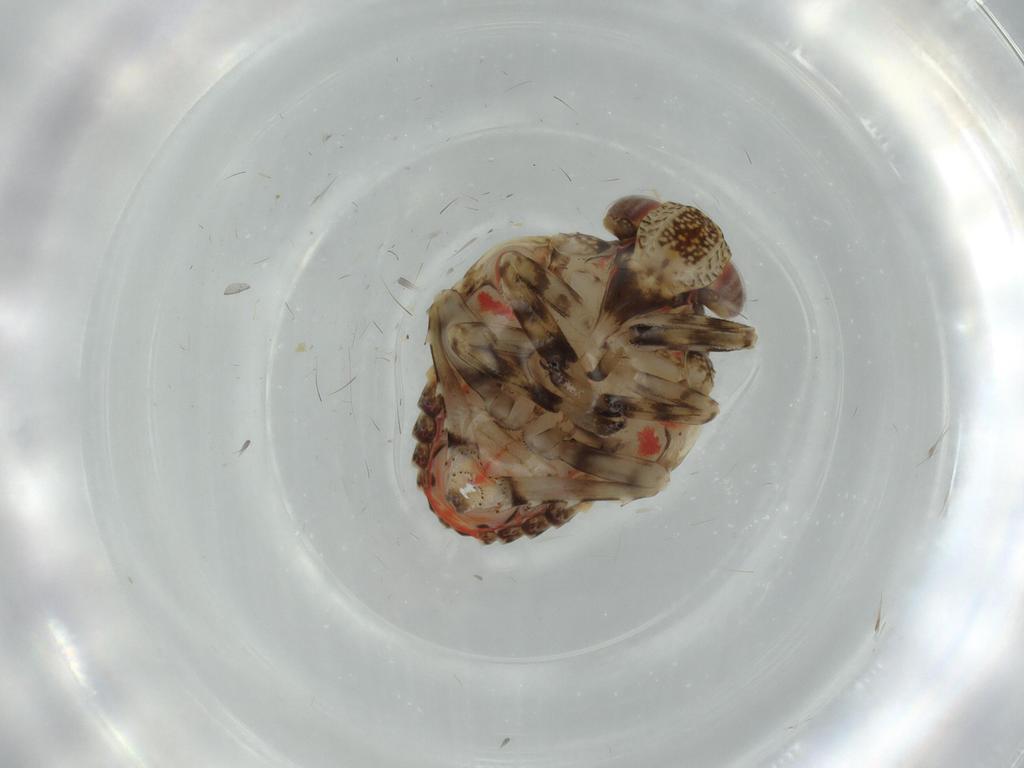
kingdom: Animalia
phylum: Arthropoda
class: Insecta
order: Hemiptera
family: Issidae
